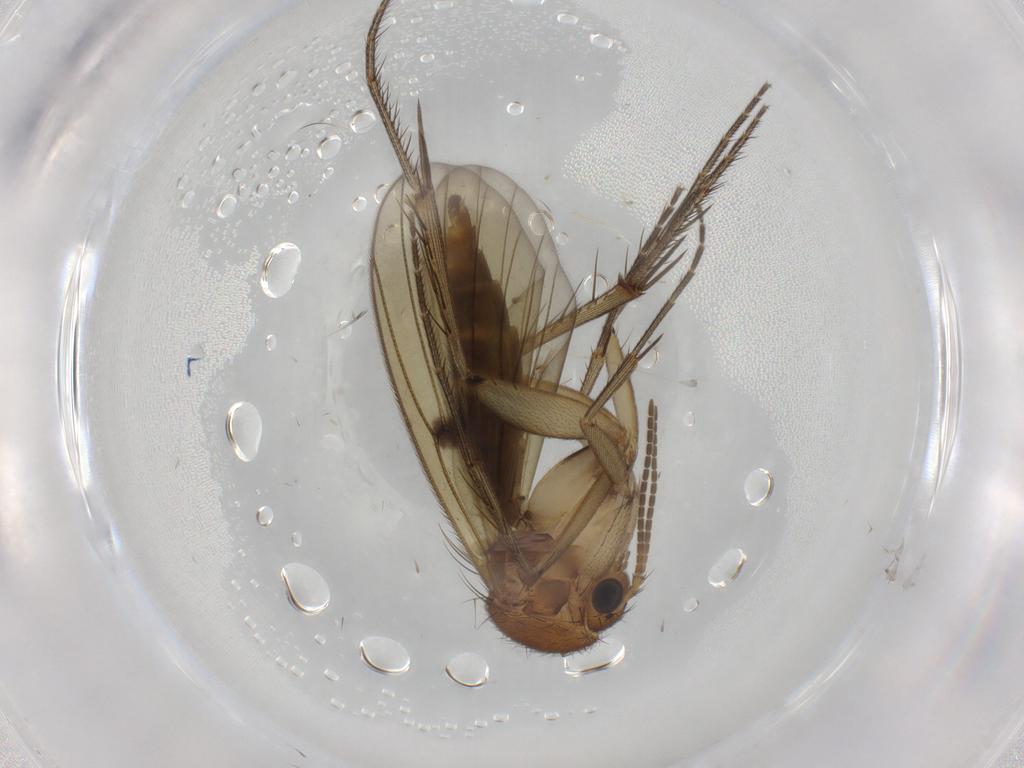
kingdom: Animalia
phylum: Arthropoda
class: Insecta
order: Diptera
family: Mycetophilidae
